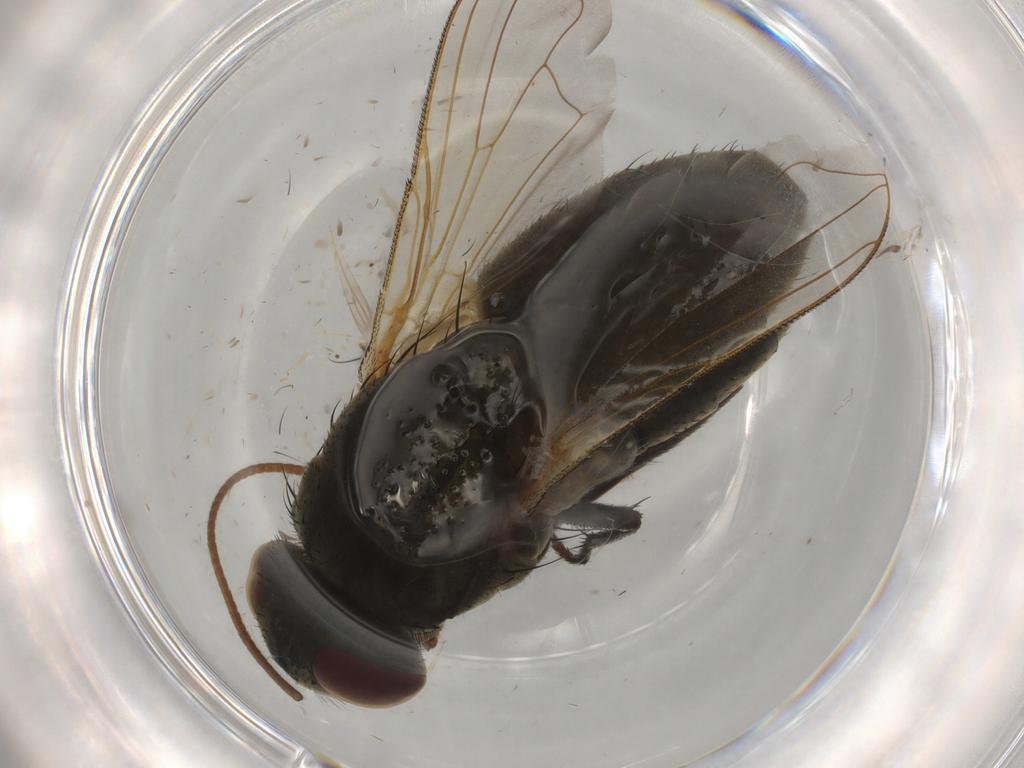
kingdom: Animalia
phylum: Arthropoda
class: Insecta
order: Diptera
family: Muscidae
